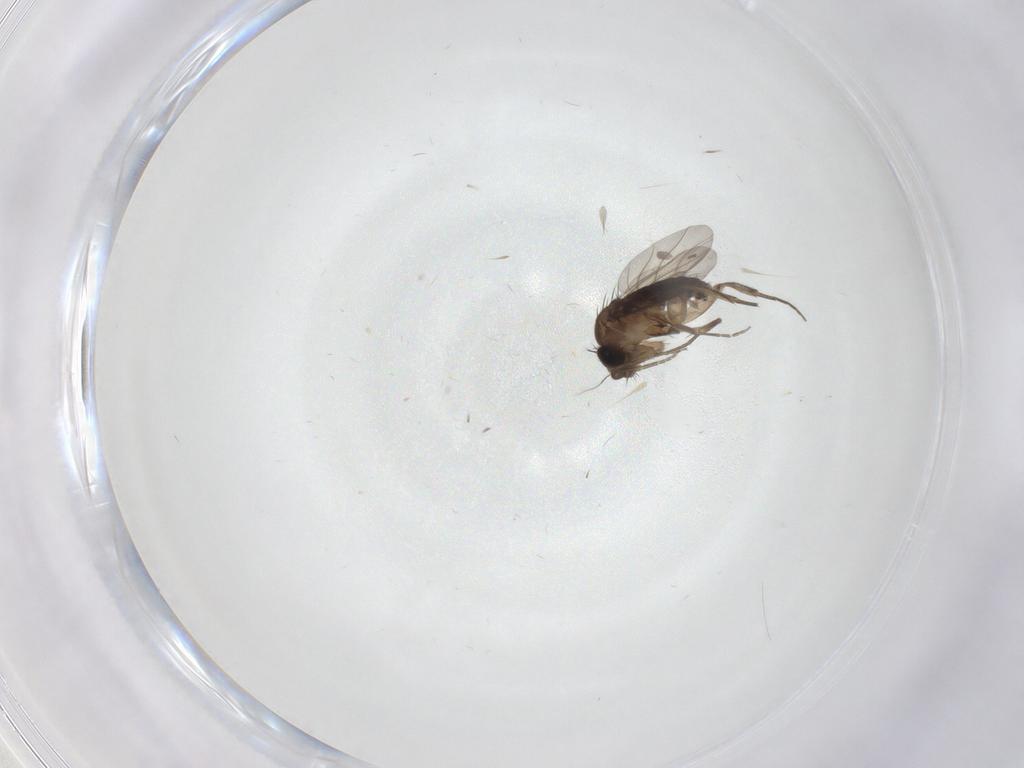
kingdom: Animalia
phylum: Arthropoda
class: Insecta
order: Diptera
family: Phoridae
